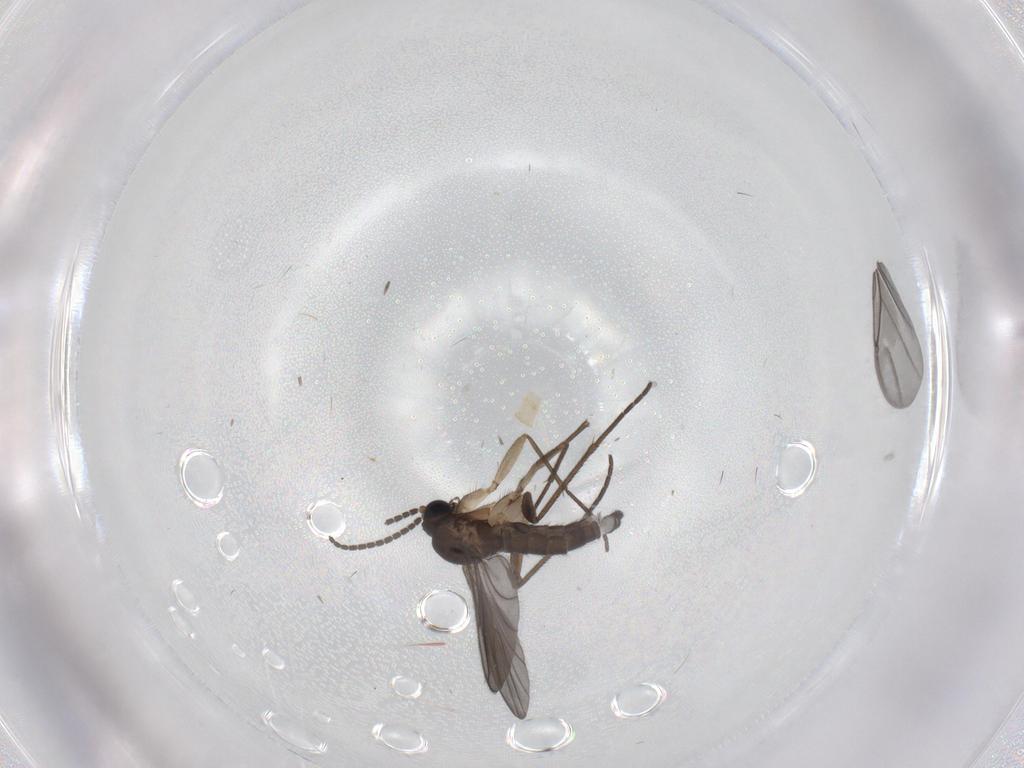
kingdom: Animalia
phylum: Arthropoda
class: Insecta
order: Diptera
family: Sciaridae
